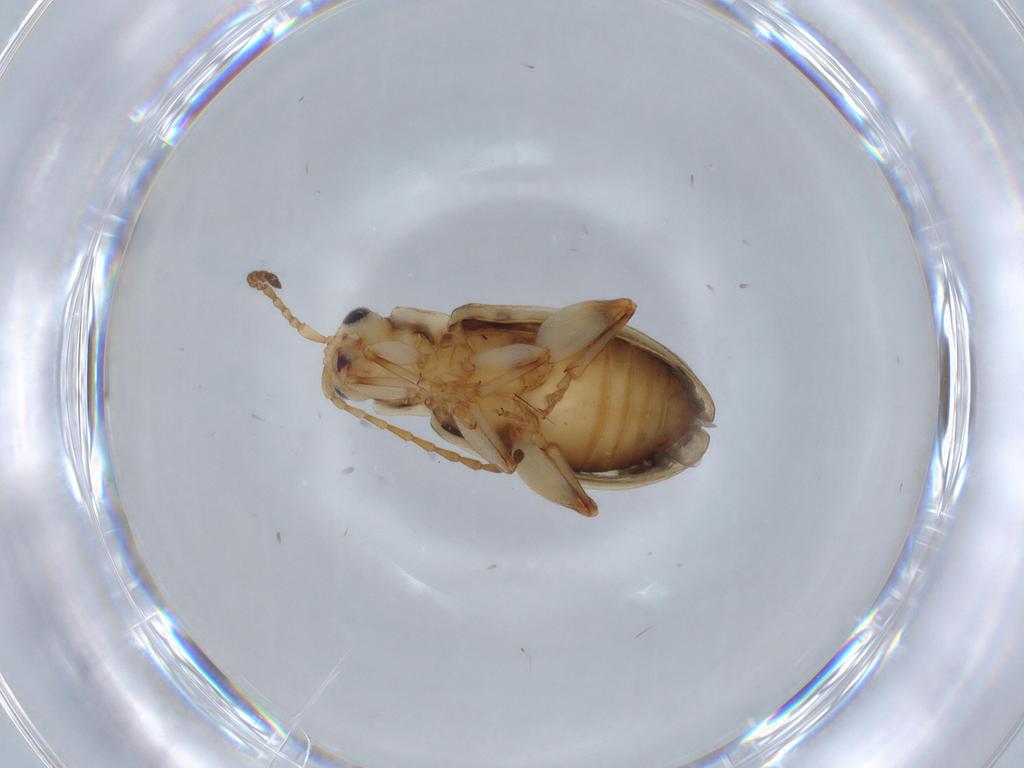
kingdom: Animalia
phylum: Arthropoda
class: Insecta
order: Coleoptera
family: Chrysomelidae
